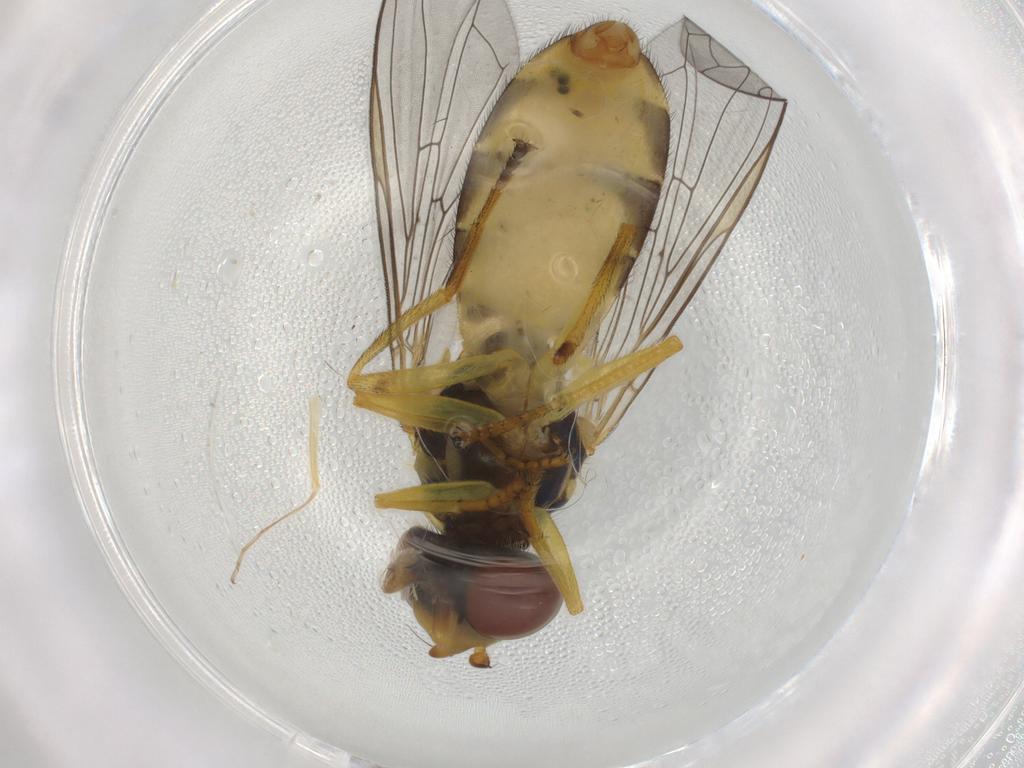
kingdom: Animalia
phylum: Arthropoda
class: Insecta
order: Diptera
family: Syrphidae
